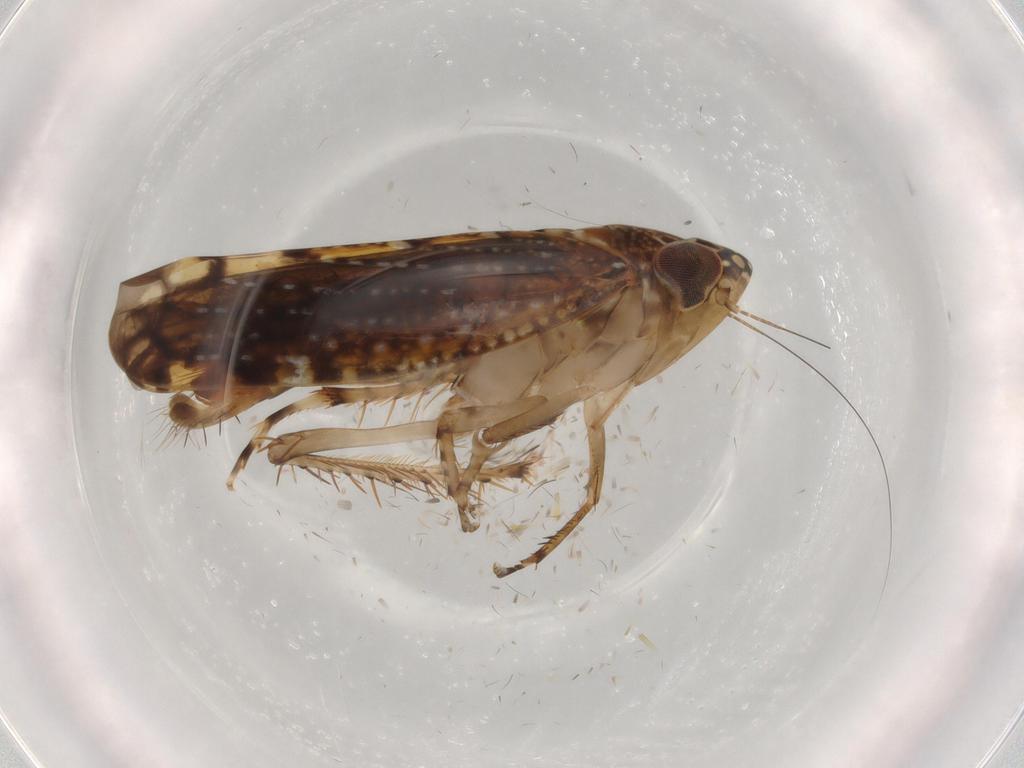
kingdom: Animalia
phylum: Arthropoda
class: Insecta
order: Hemiptera
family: Cicadellidae
